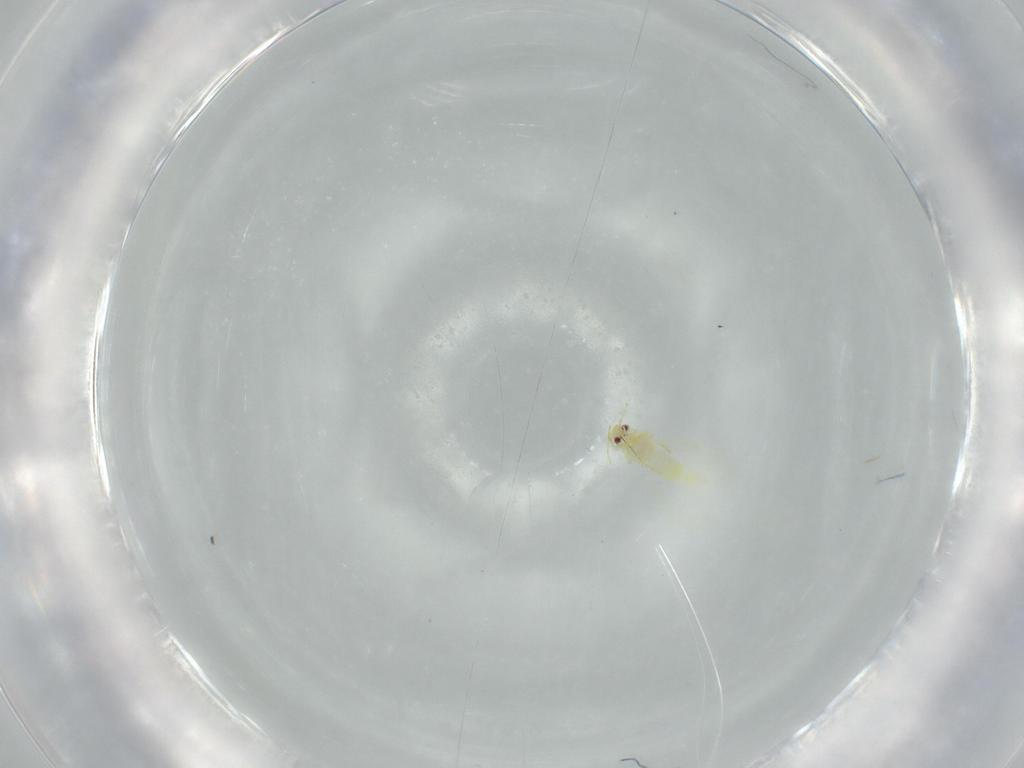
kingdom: Animalia
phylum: Arthropoda
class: Insecta
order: Hemiptera
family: Aleyrodidae
